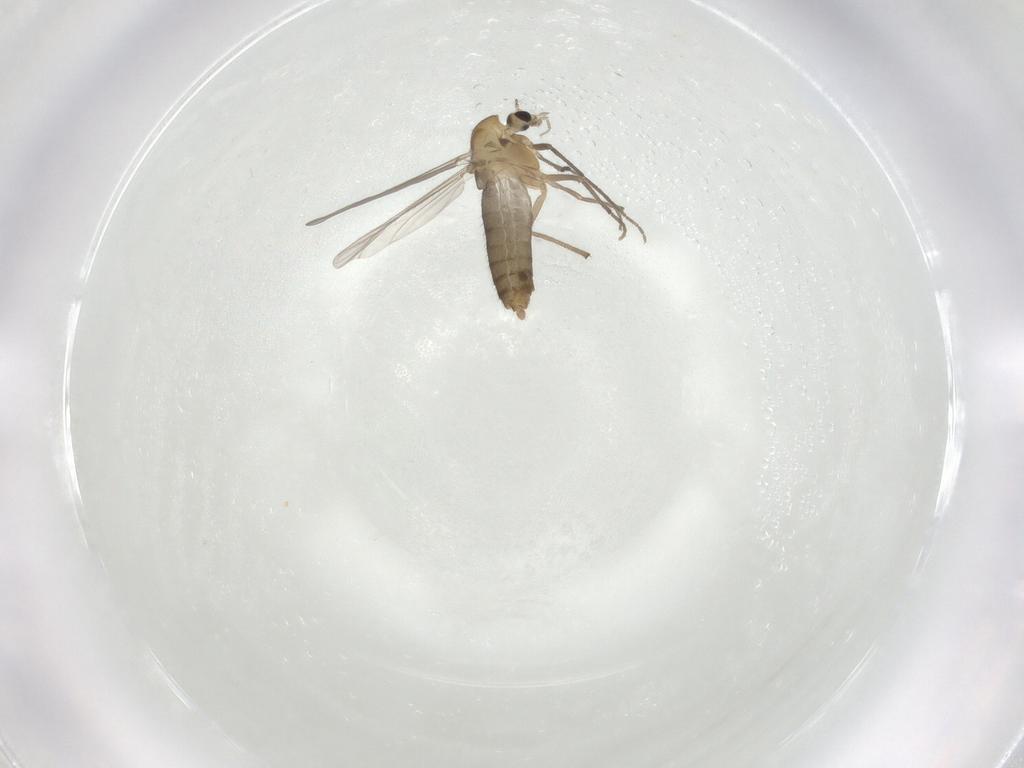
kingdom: Animalia
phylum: Arthropoda
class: Insecta
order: Diptera
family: Chironomidae
